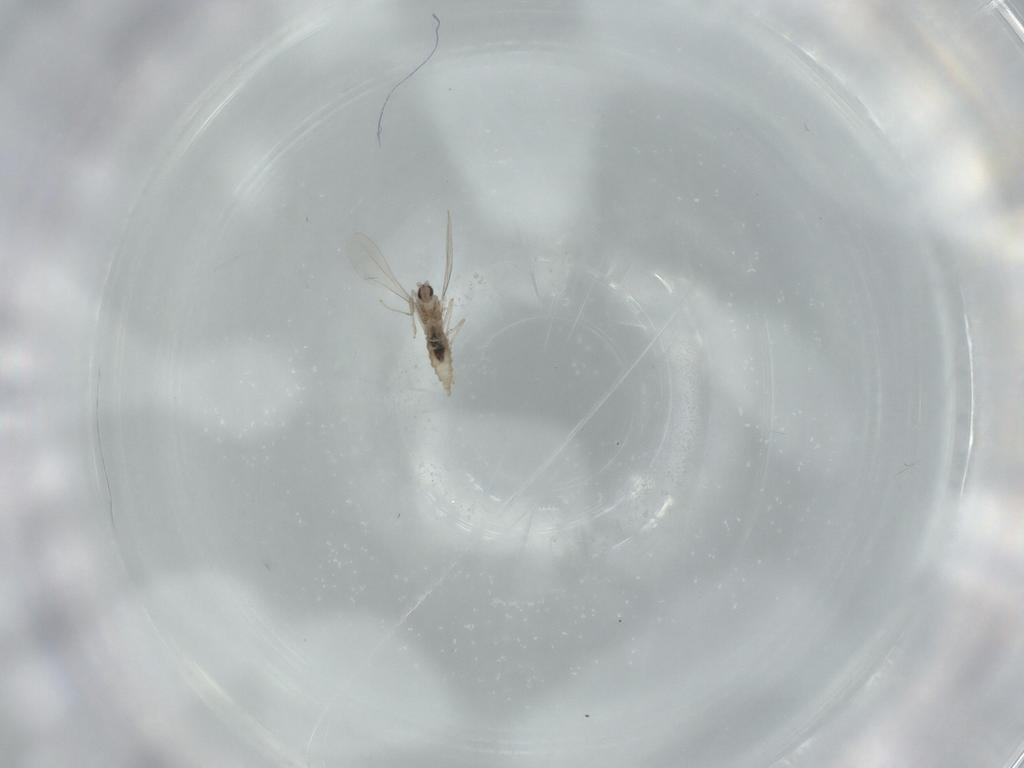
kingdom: Animalia
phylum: Arthropoda
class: Insecta
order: Diptera
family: Cecidomyiidae
